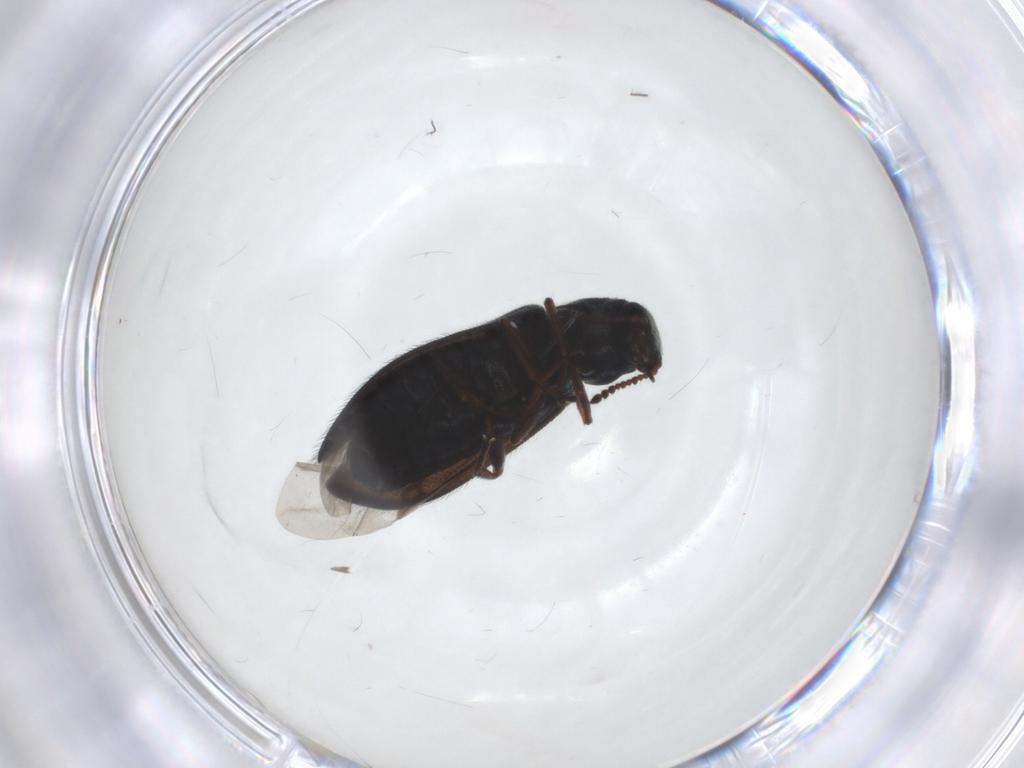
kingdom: Animalia
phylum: Arthropoda
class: Insecta
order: Coleoptera
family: Melyridae
